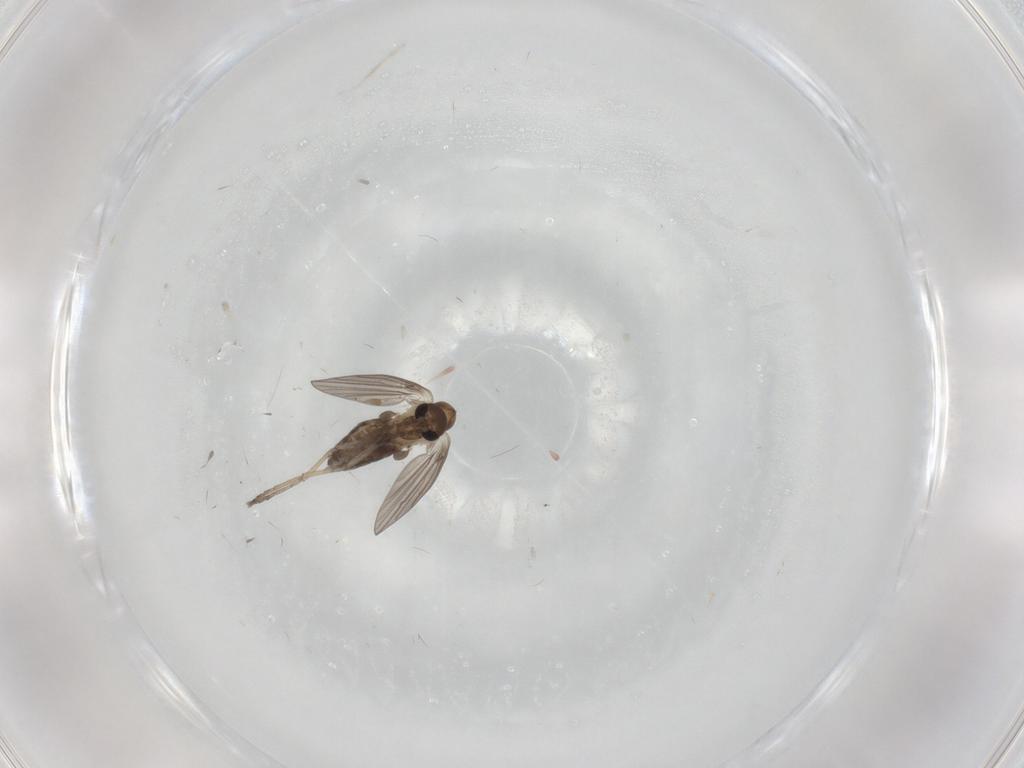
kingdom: Animalia
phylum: Arthropoda
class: Insecta
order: Diptera
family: Psychodidae
